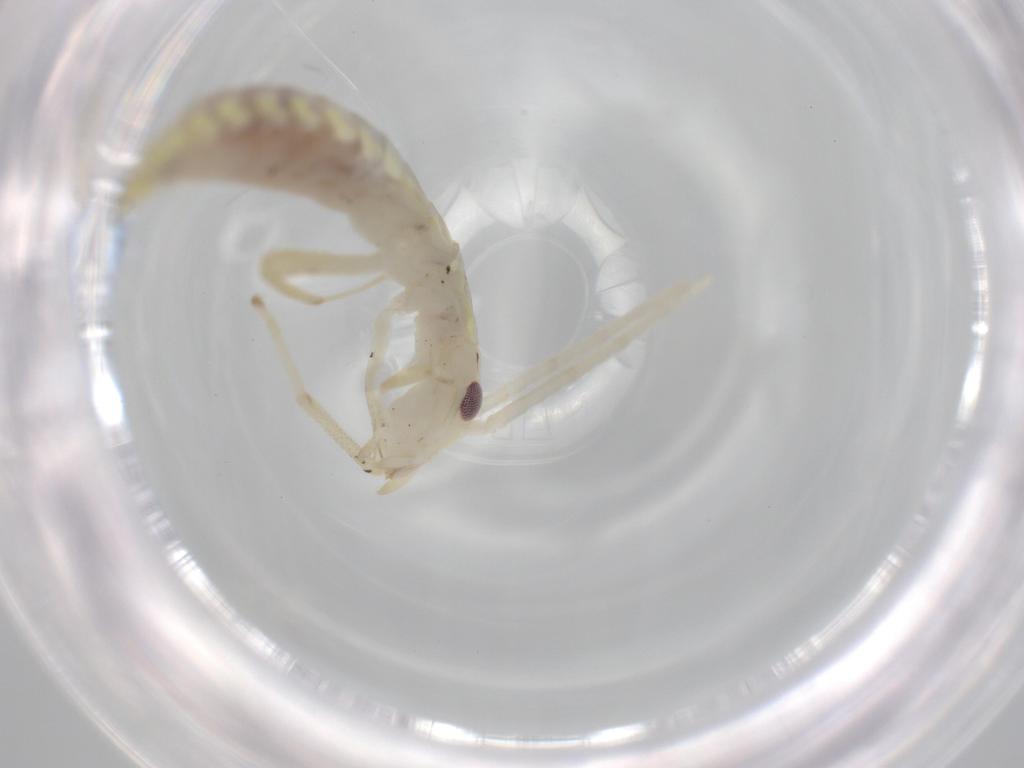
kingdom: Animalia
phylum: Arthropoda
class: Insecta
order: Orthoptera
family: Oecanthidae
